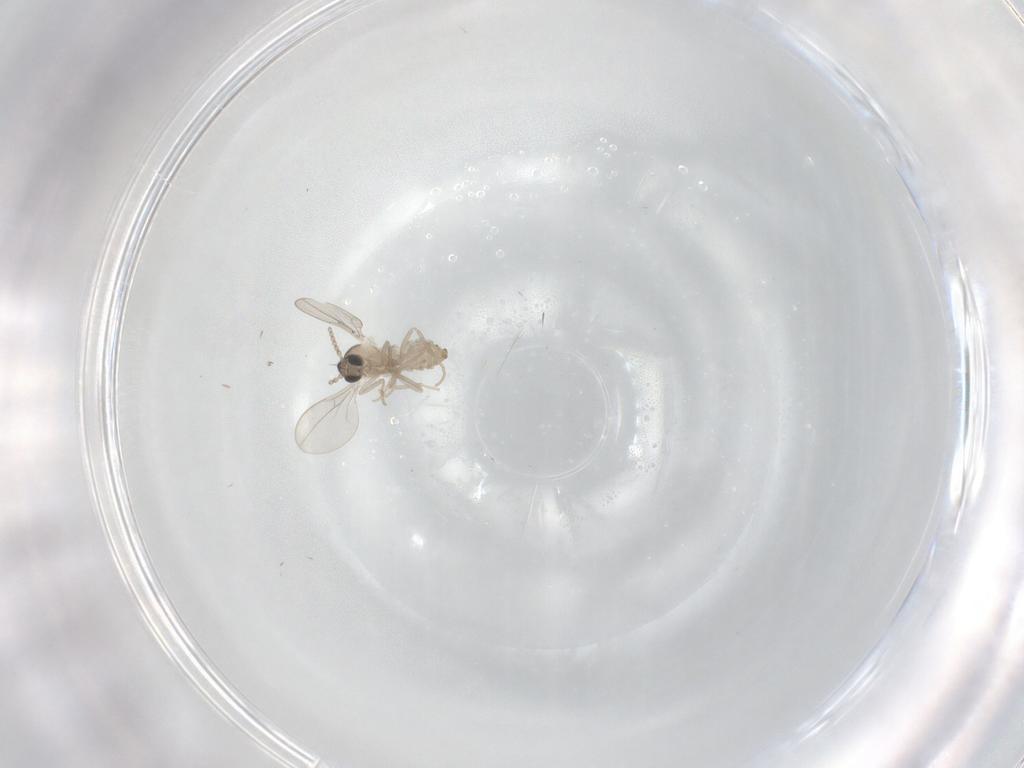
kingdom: Animalia
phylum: Arthropoda
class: Insecta
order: Diptera
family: Cecidomyiidae
